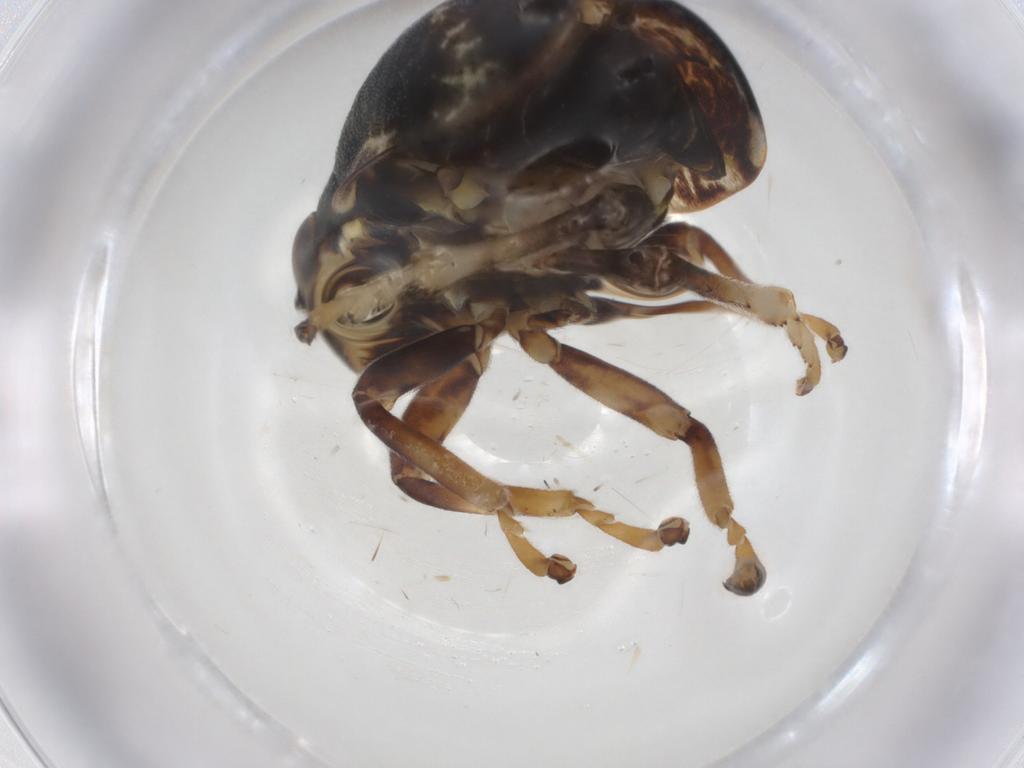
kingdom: Animalia
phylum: Arthropoda
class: Insecta
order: Hemiptera
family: Aphrophoridae
